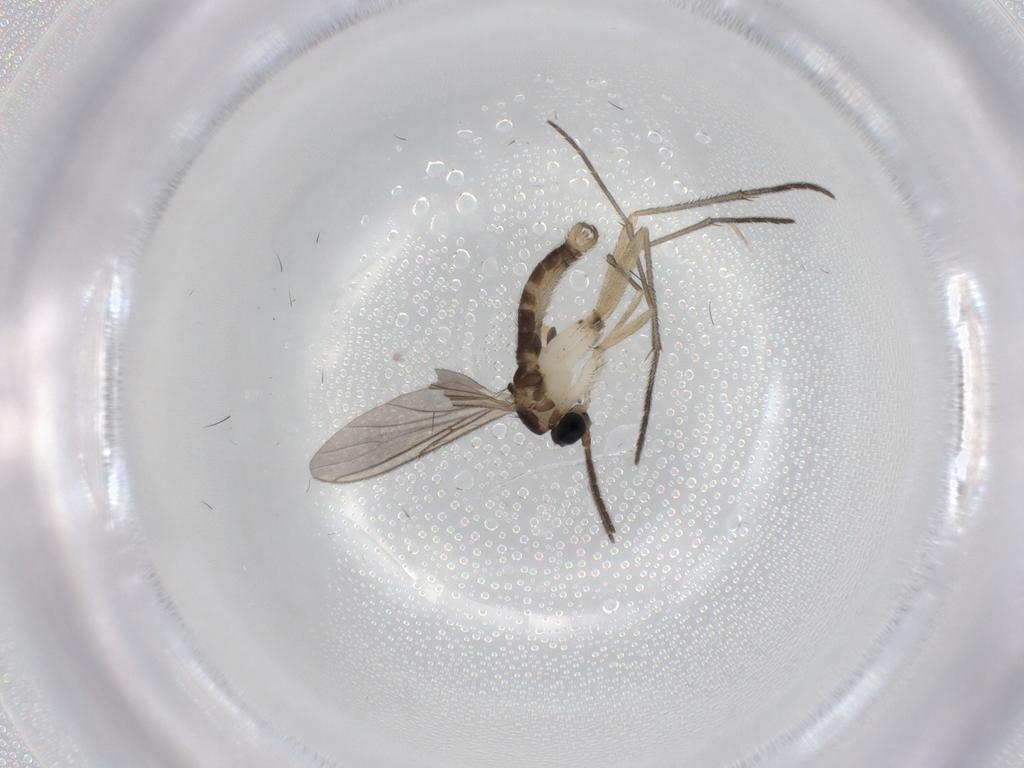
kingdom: Animalia
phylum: Arthropoda
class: Insecta
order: Diptera
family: Sciaridae
